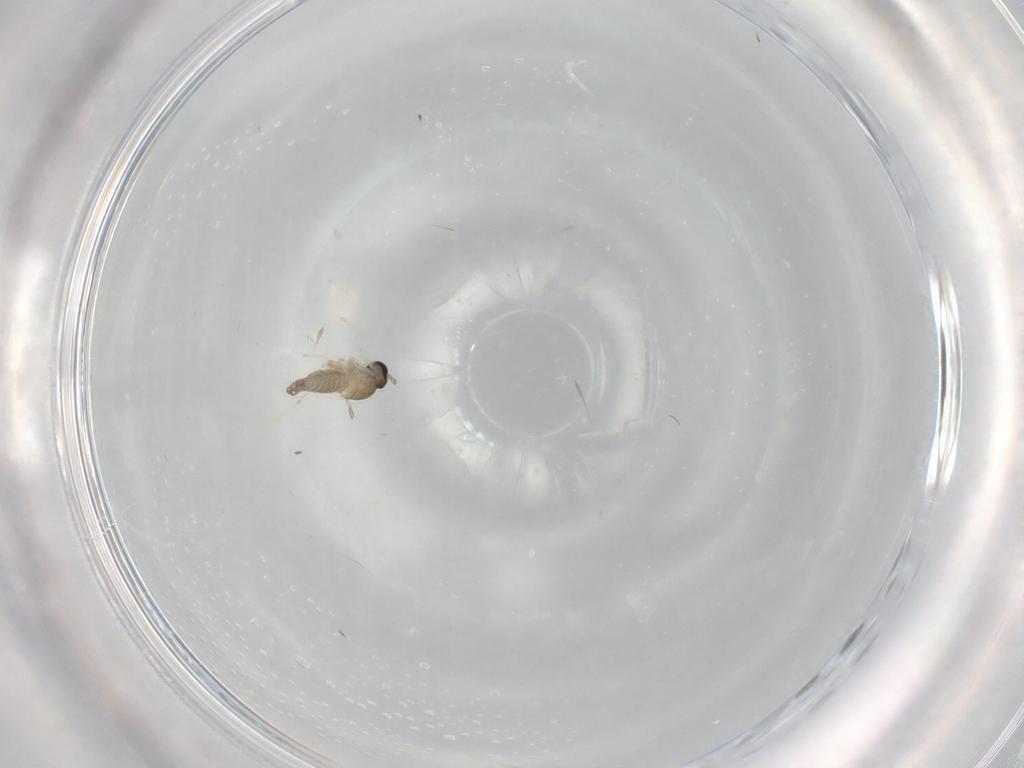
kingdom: Animalia
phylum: Arthropoda
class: Insecta
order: Diptera
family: Cecidomyiidae
